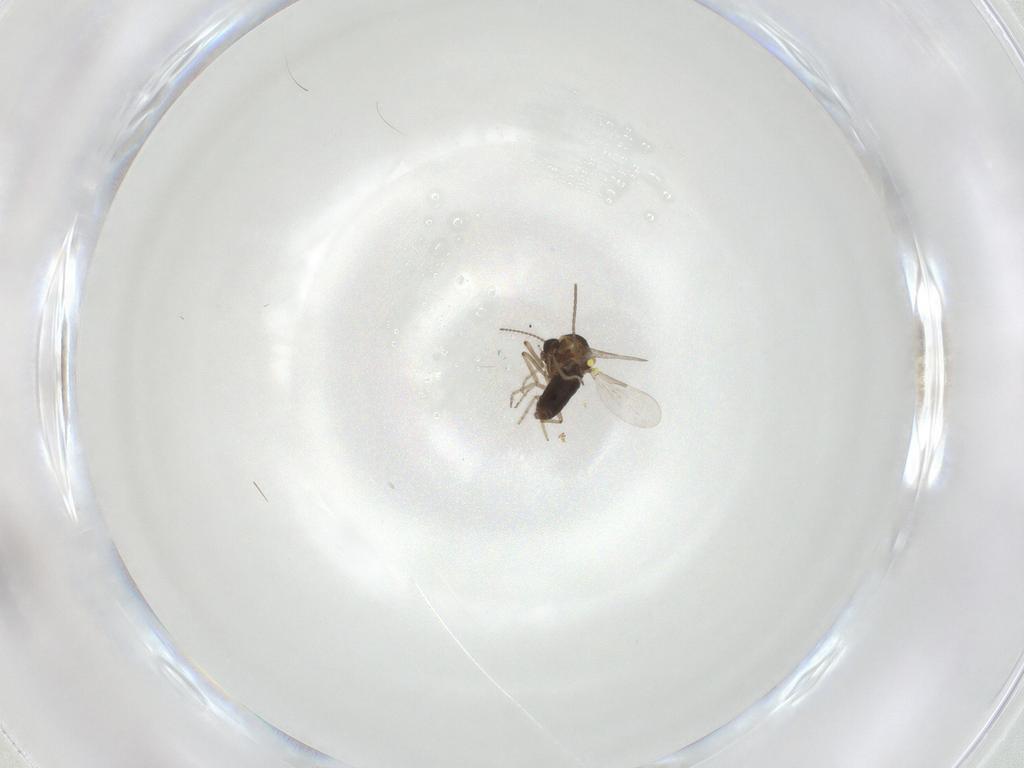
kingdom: Animalia
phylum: Arthropoda
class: Insecta
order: Diptera
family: Ceratopogonidae
